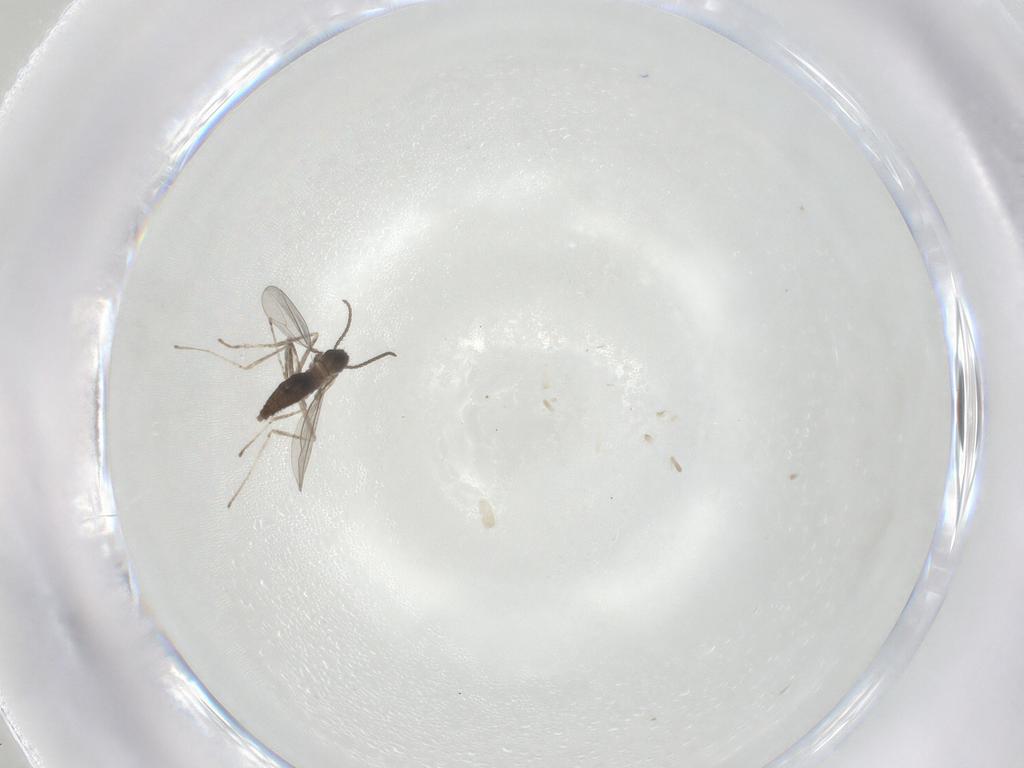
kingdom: Animalia
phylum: Arthropoda
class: Insecta
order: Diptera
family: Cecidomyiidae
